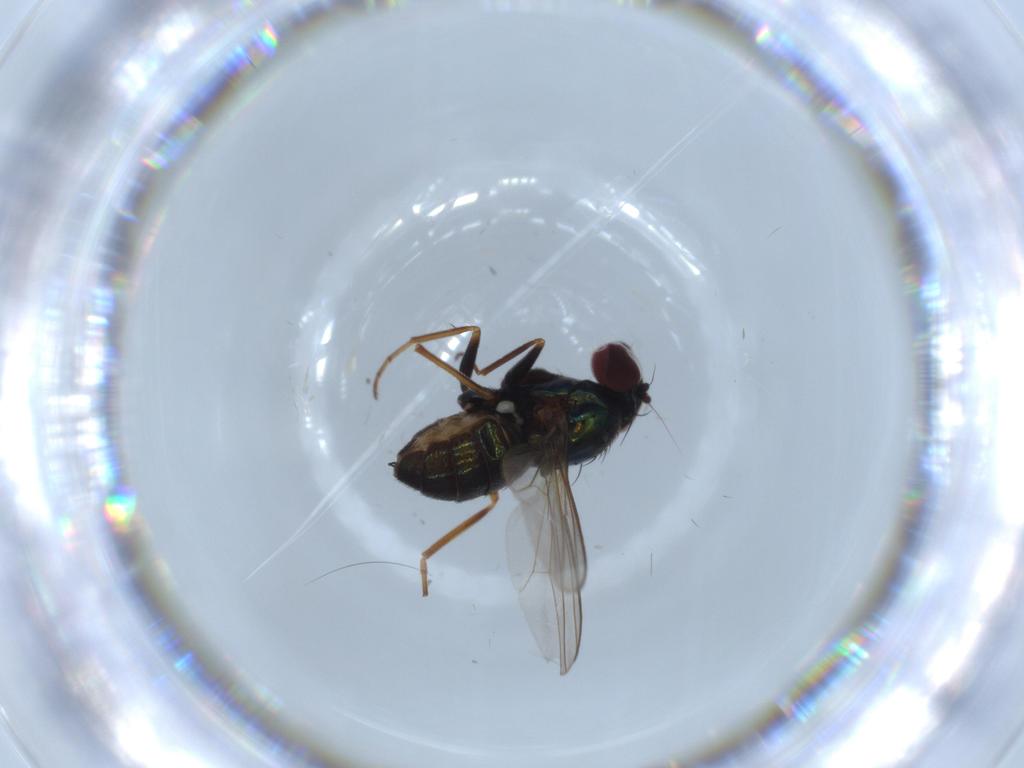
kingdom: Animalia
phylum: Arthropoda
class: Insecta
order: Diptera
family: Dolichopodidae
